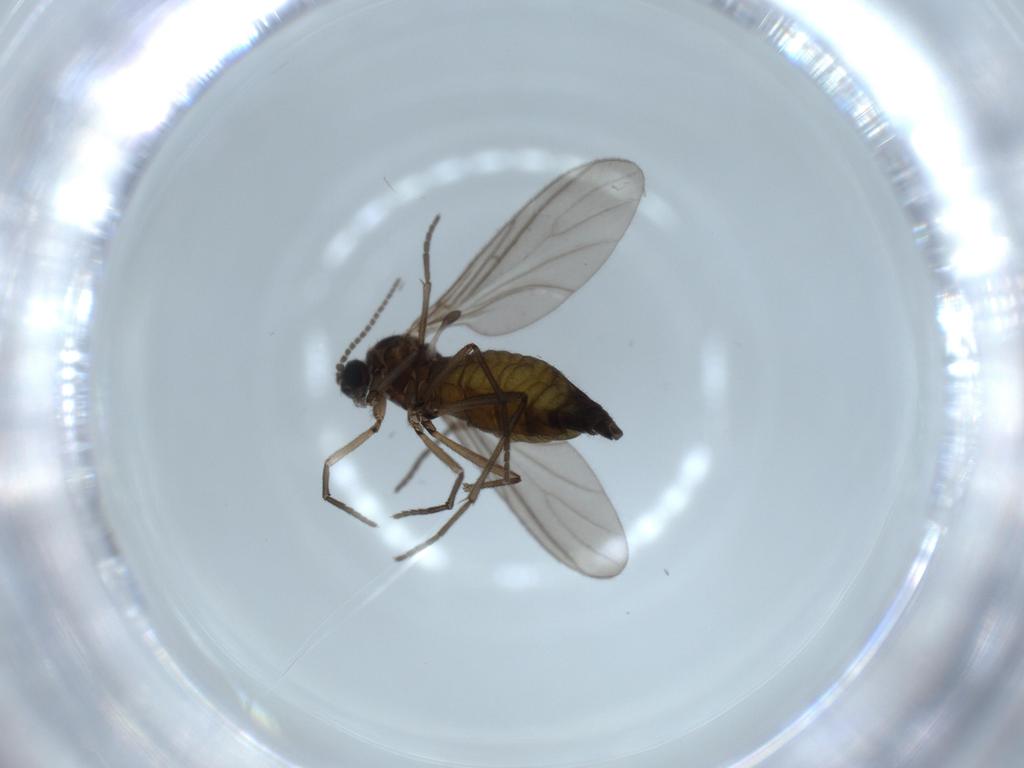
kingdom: Animalia
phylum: Arthropoda
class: Insecta
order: Diptera
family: Sciaridae
